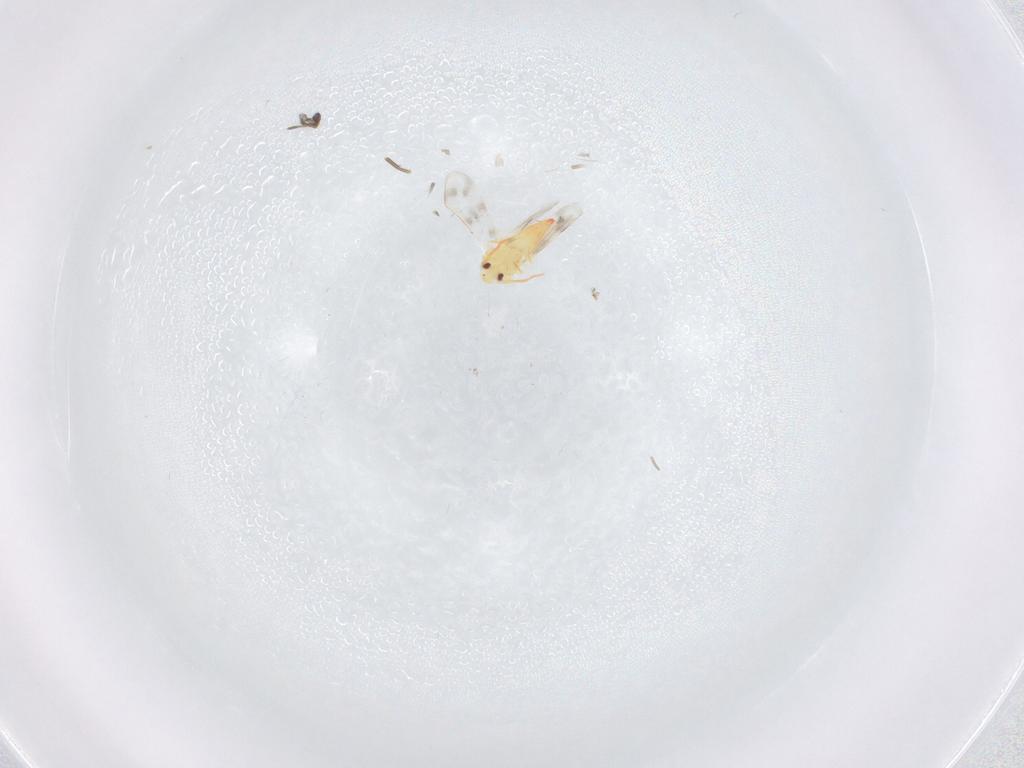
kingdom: Animalia
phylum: Arthropoda
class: Insecta
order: Hemiptera
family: Aleyrodidae
